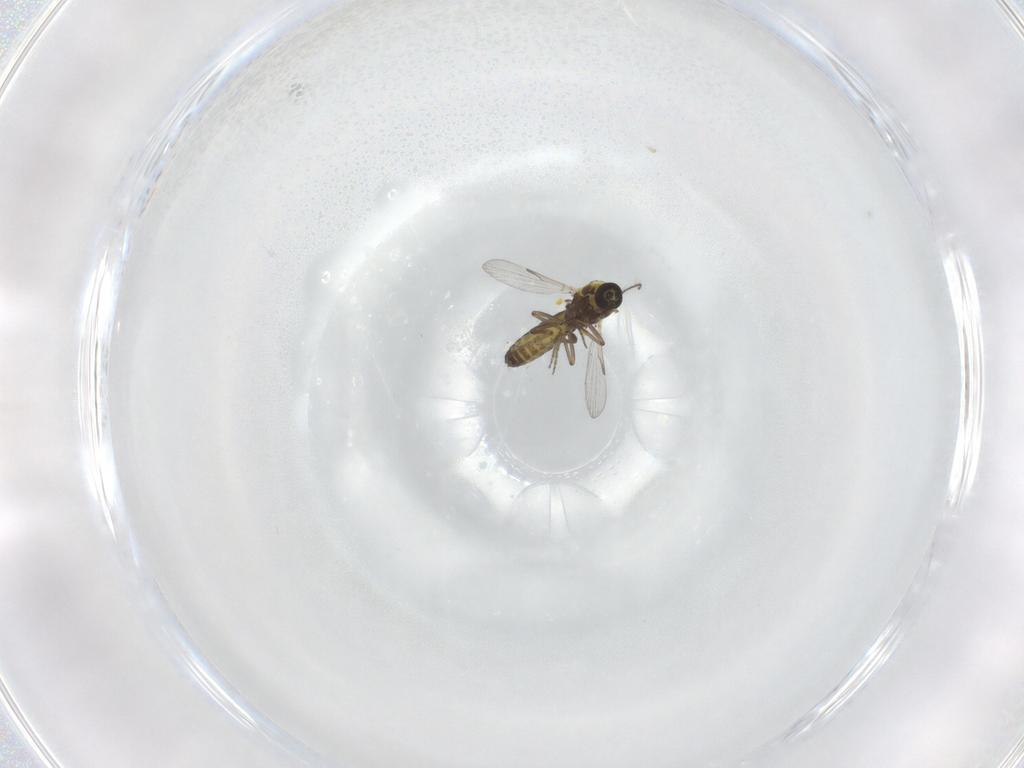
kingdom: Animalia
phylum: Arthropoda
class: Insecta
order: Diptera
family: Ceratopogonidae
